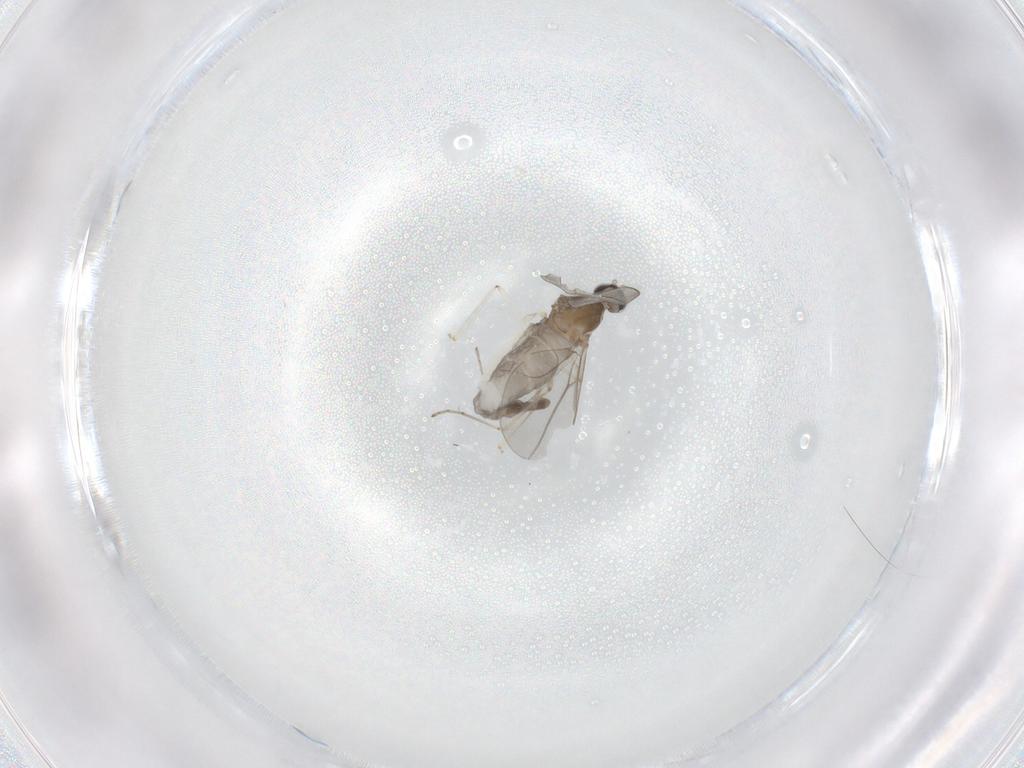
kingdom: Animalia
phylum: Arthropoda
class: Insecta
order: Diptera
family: Cecidomyiidae
